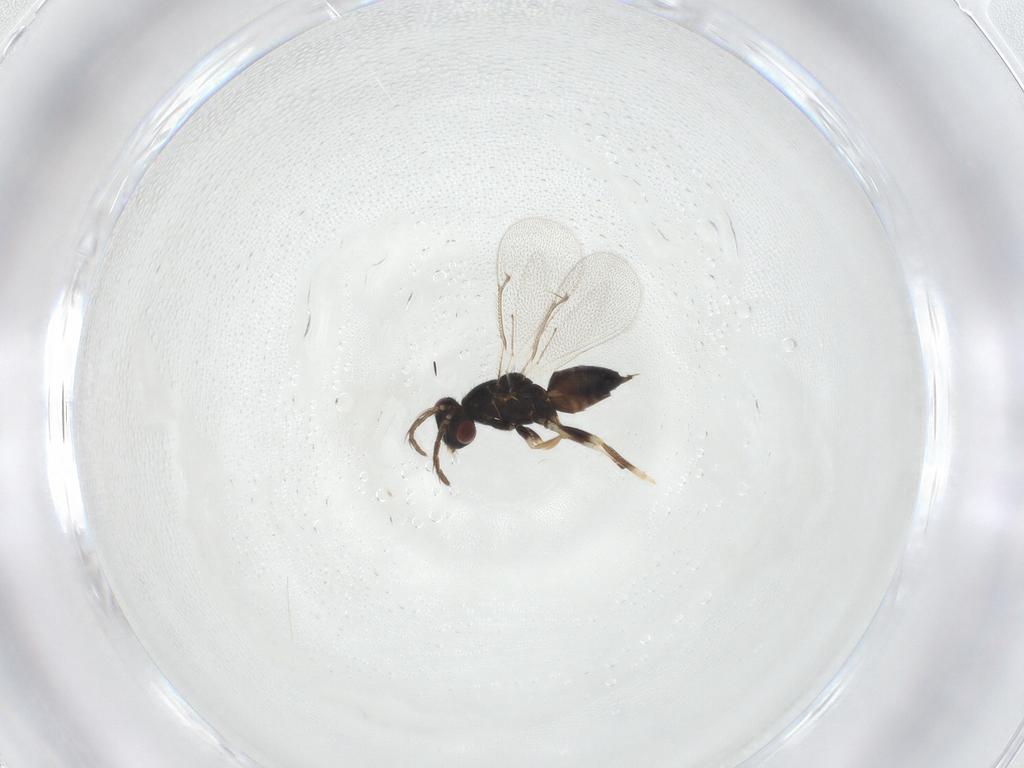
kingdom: Animalia
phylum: Arthropoda
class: Insecta
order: Hymenoptera
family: Eulophidae
